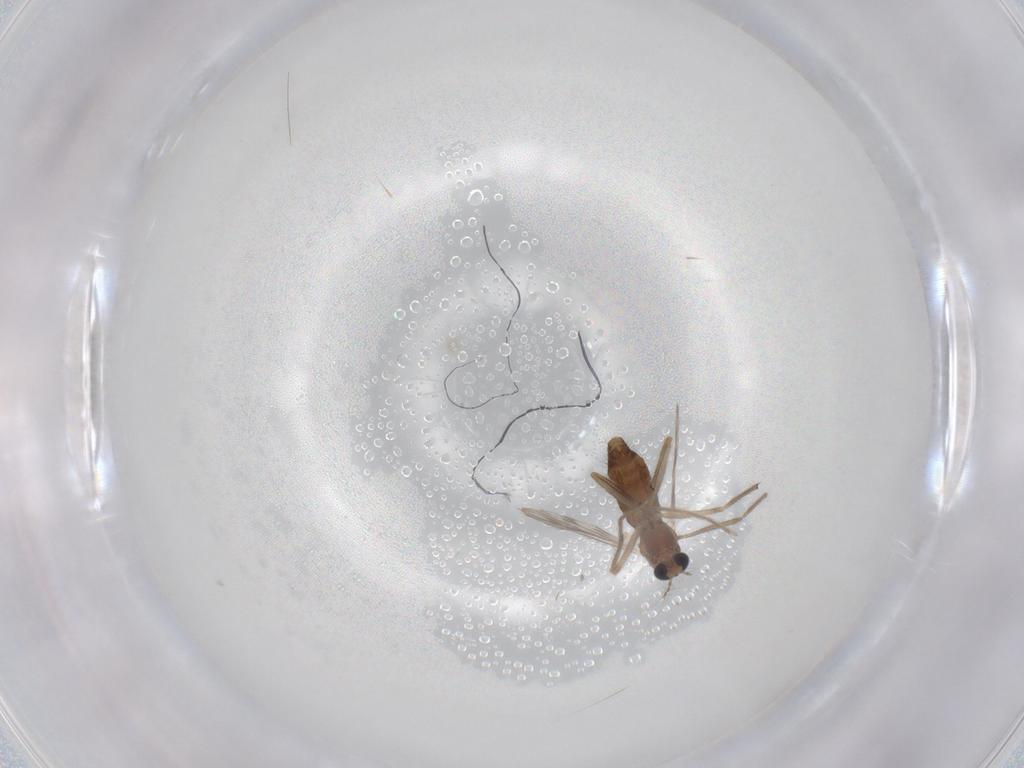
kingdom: Animalia
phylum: Arthropoda
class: Insecta
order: Diptera
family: Chironomidae
